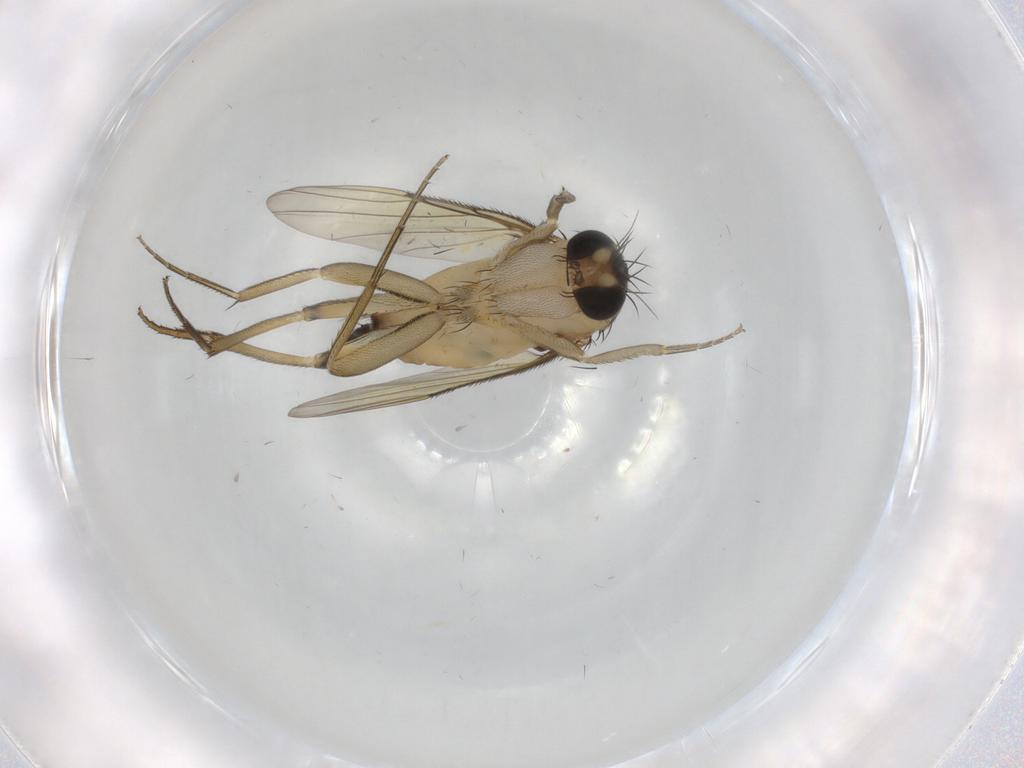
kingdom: Animalia
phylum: Arthropoda
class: Insecta
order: Diptera
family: Phoridae
